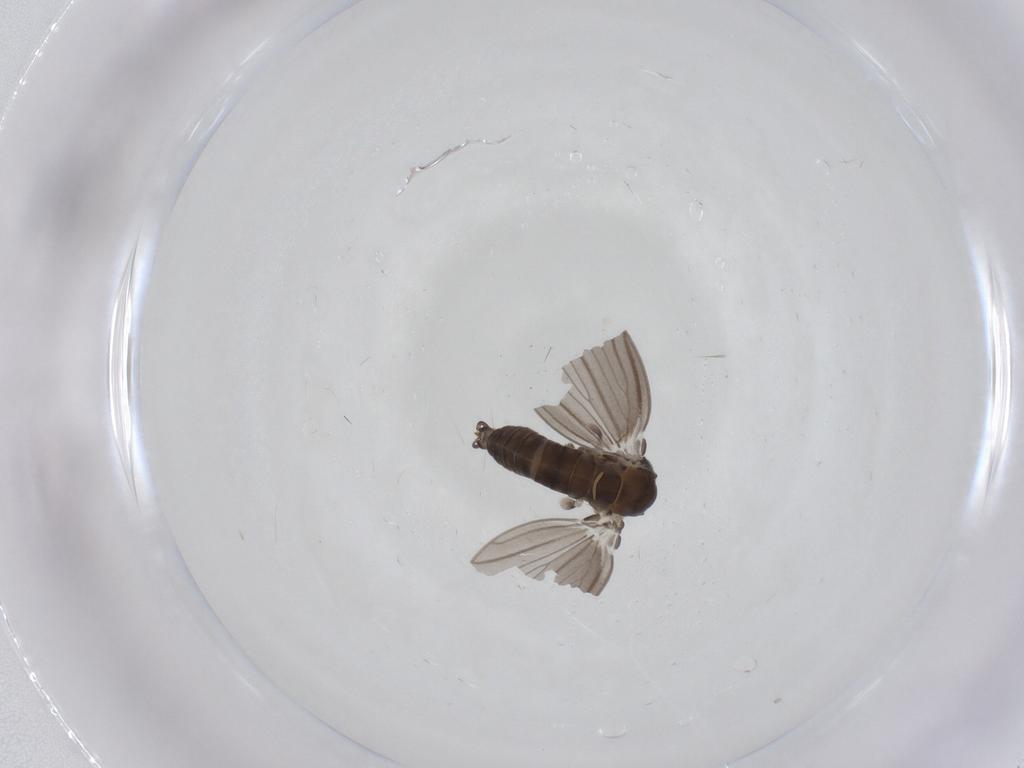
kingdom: Animalia
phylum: Arthropoda
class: Insecta
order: Diptera
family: Psychodidae
